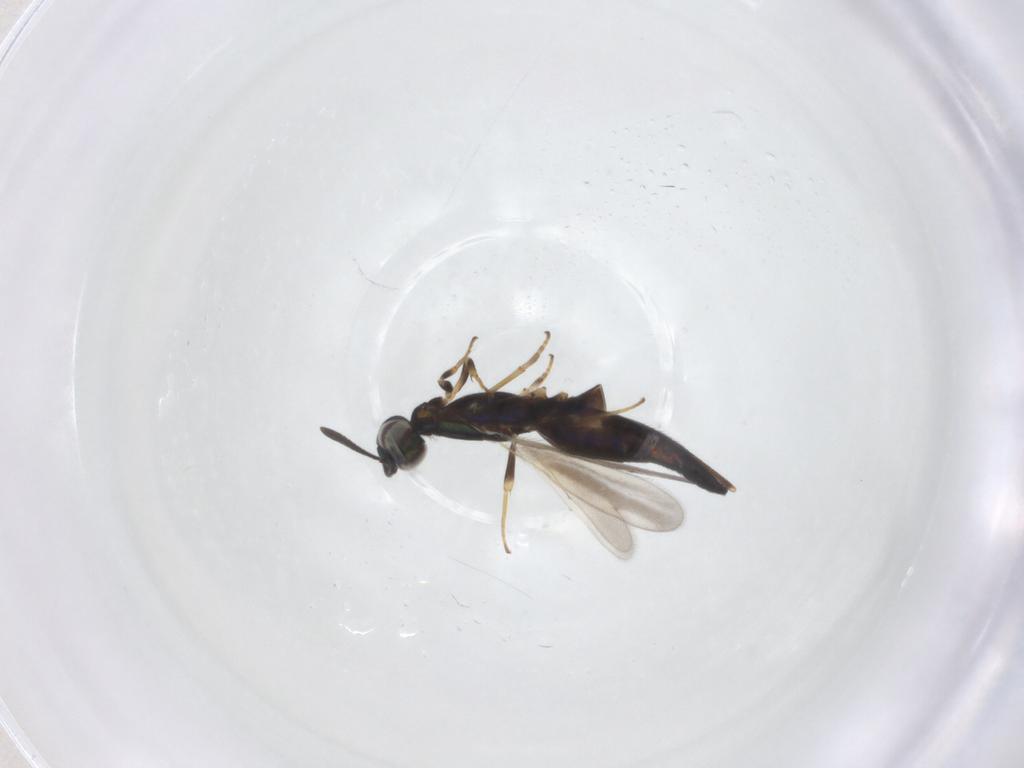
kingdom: Animalia
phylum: Arthropoda
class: Insecta
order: Hymenoptera
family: Eupelmidae
